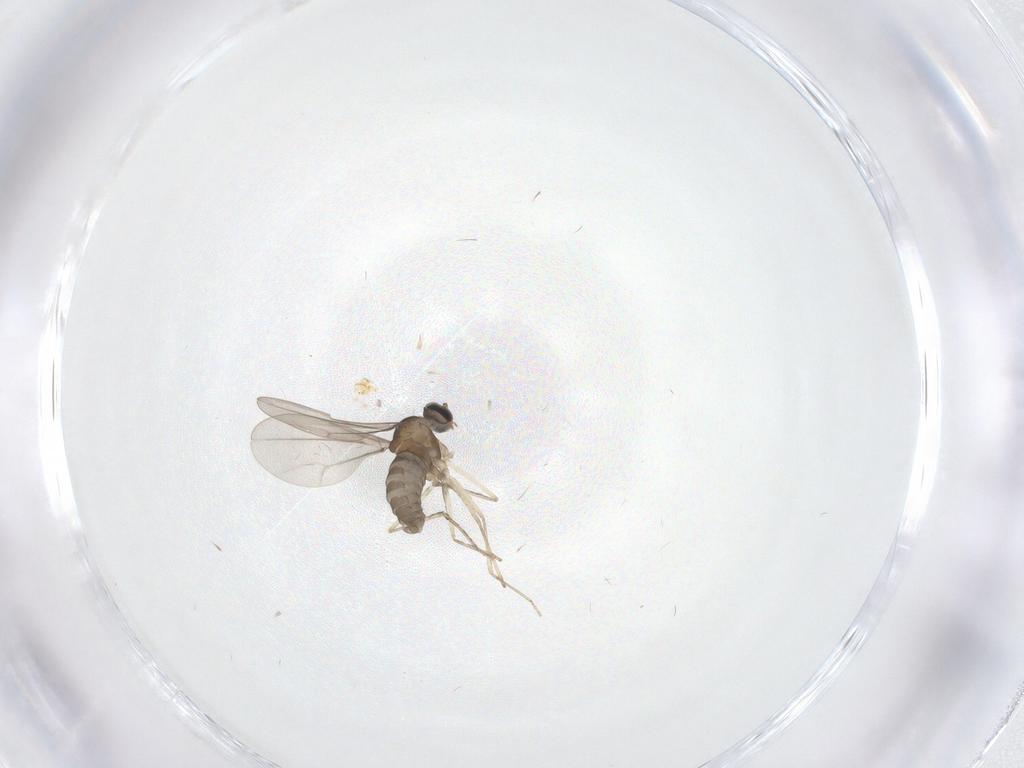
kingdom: Animalia
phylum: Arthropoda
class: Insecta
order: Diptera
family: Cecidomyiidae
